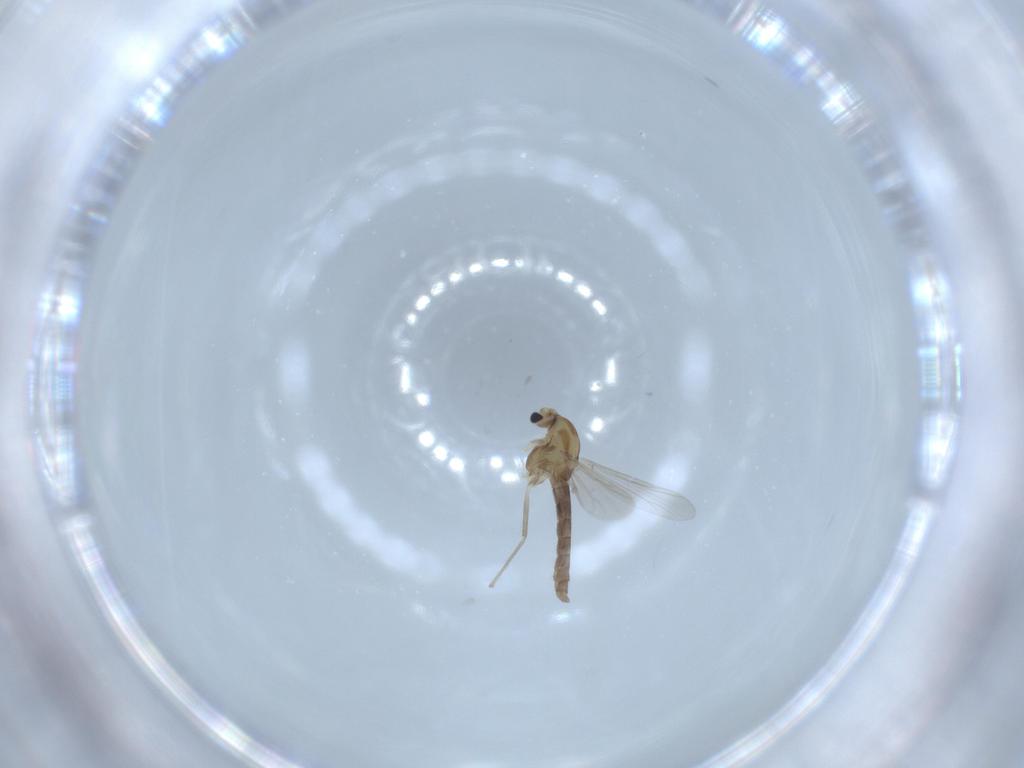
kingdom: Animalia
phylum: Arthropoda
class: Insecta
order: Diptera
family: Chironomidae
